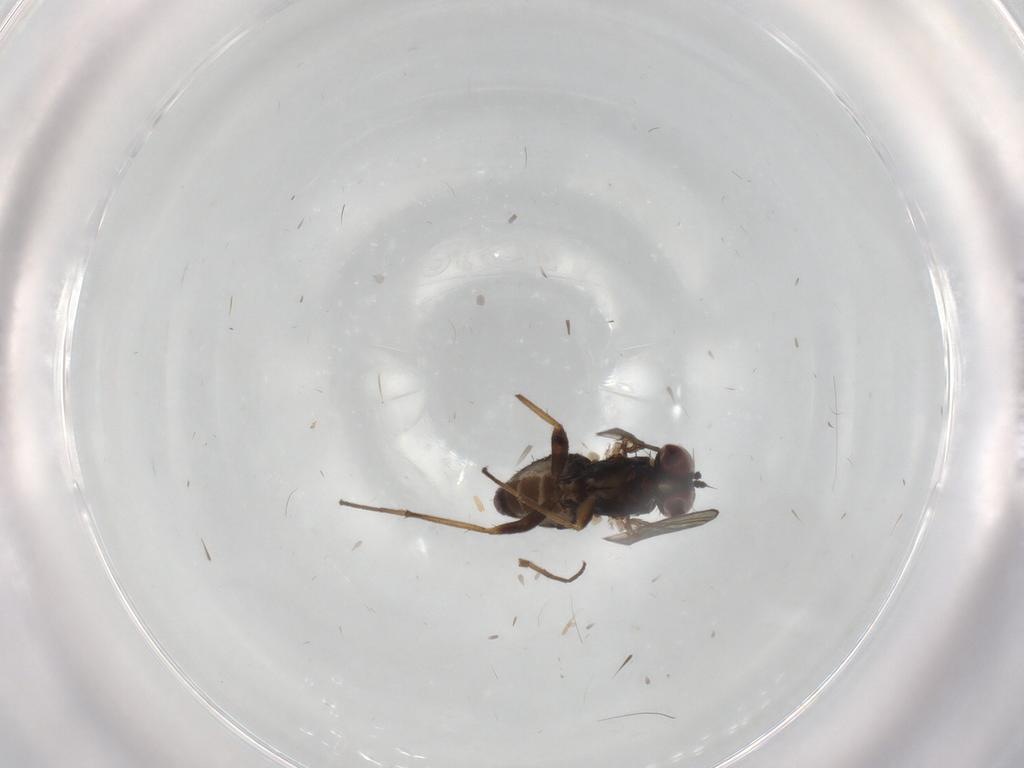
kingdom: Animalia
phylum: Arthropoda
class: Insecta
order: Diptera
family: Dolichopodidae
